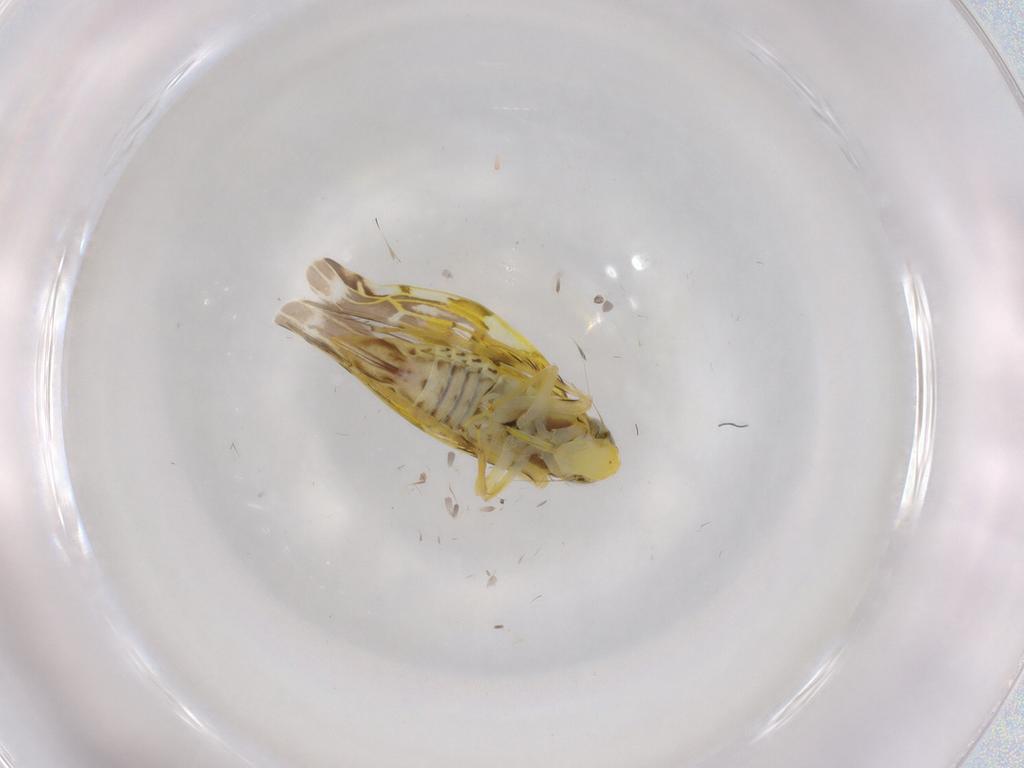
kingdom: Animalia
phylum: Arthropoda
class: Insecta
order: Hemiptera
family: Cicadellidae
